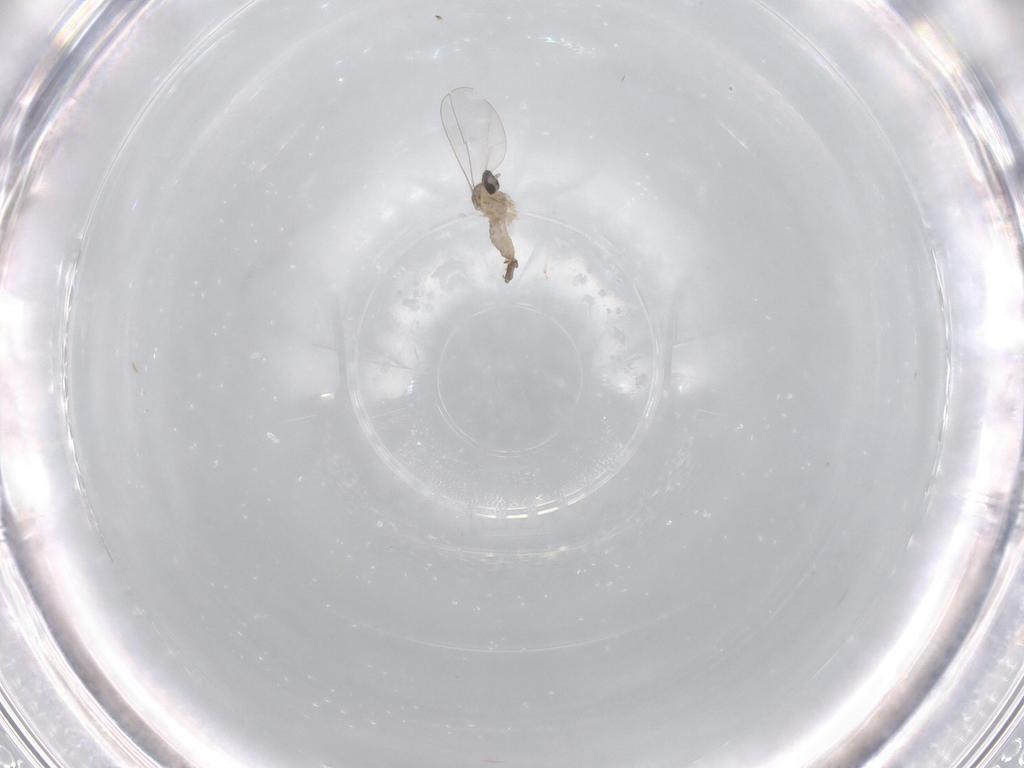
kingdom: Animalia
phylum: Arthropoda
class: Insecta
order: Diptera
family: Cecidomyiidae
